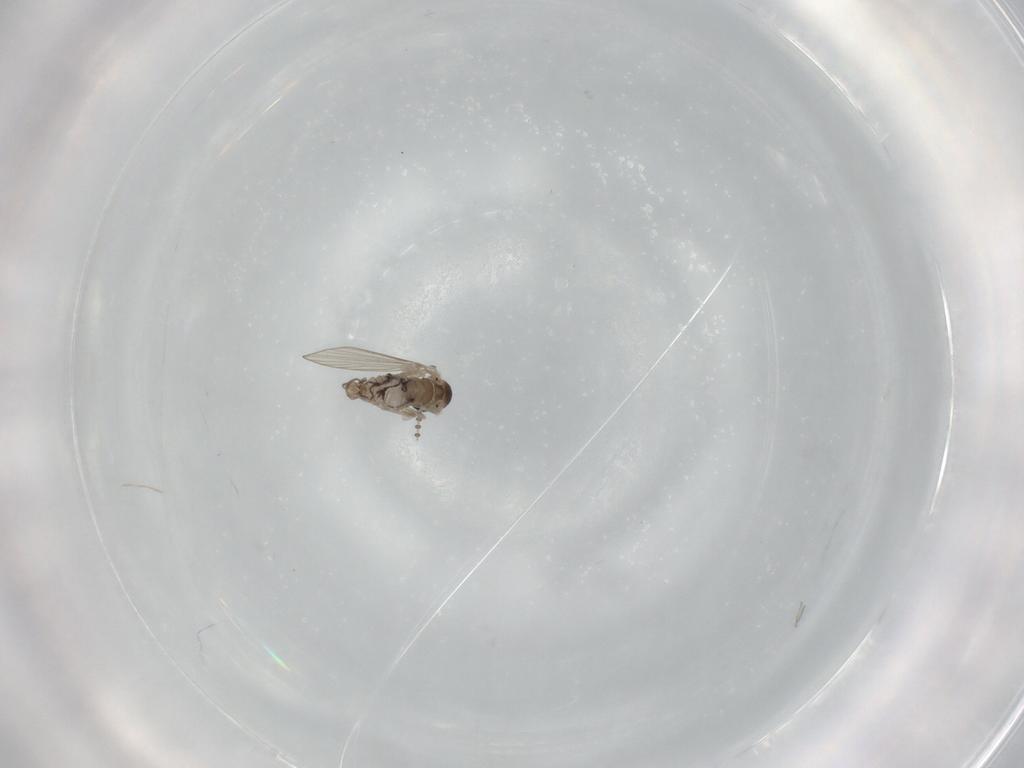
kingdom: Animalia
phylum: Arthropoda
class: Insecta
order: Diptera
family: Psychodidae
